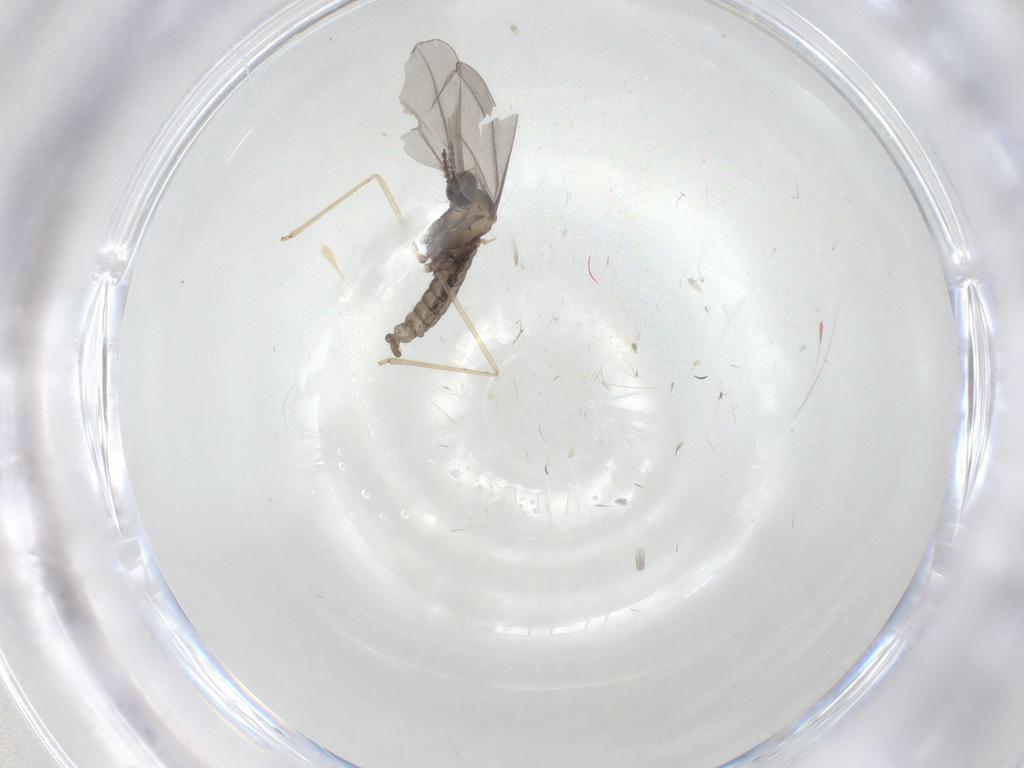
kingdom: Animalia
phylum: Arthropoda
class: Insecta
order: Diptera
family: Cecidomyiidae
